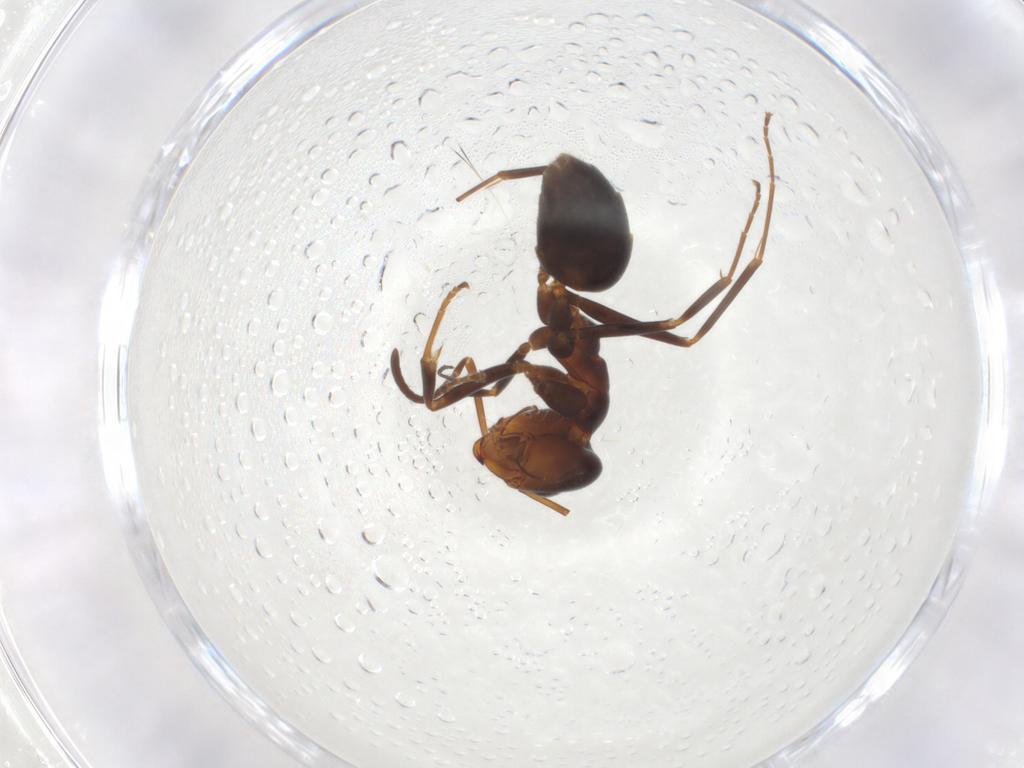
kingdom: Animalia
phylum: Arthropoda
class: Insecta
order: Hymenoptera
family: Formicidae
